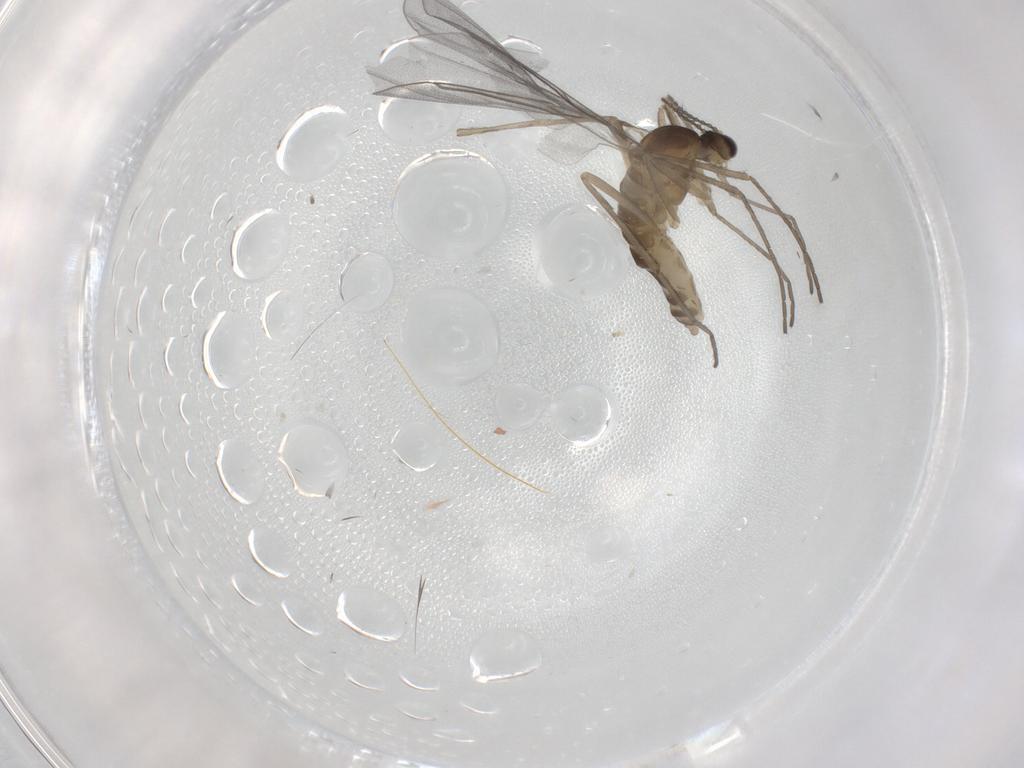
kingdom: Animalia
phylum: Arthropoda
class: Insecta
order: Diptera
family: Cecidomyiidae
